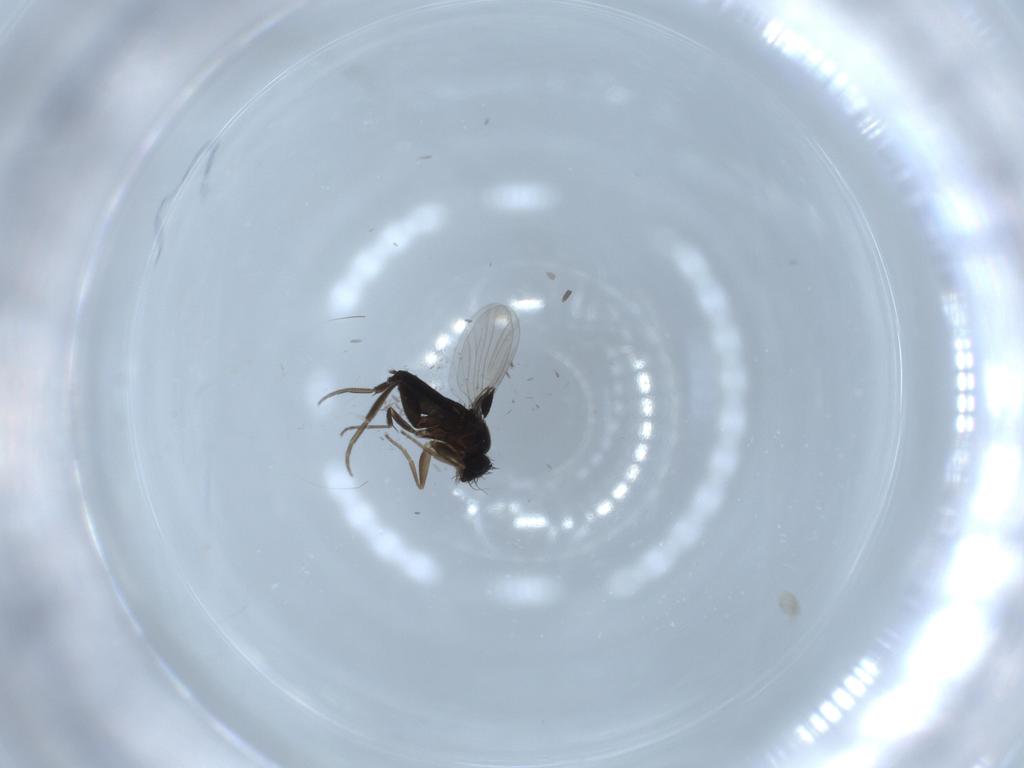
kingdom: Animalia
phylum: Arthropoda
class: Insecta
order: Diptera
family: Phoridae
